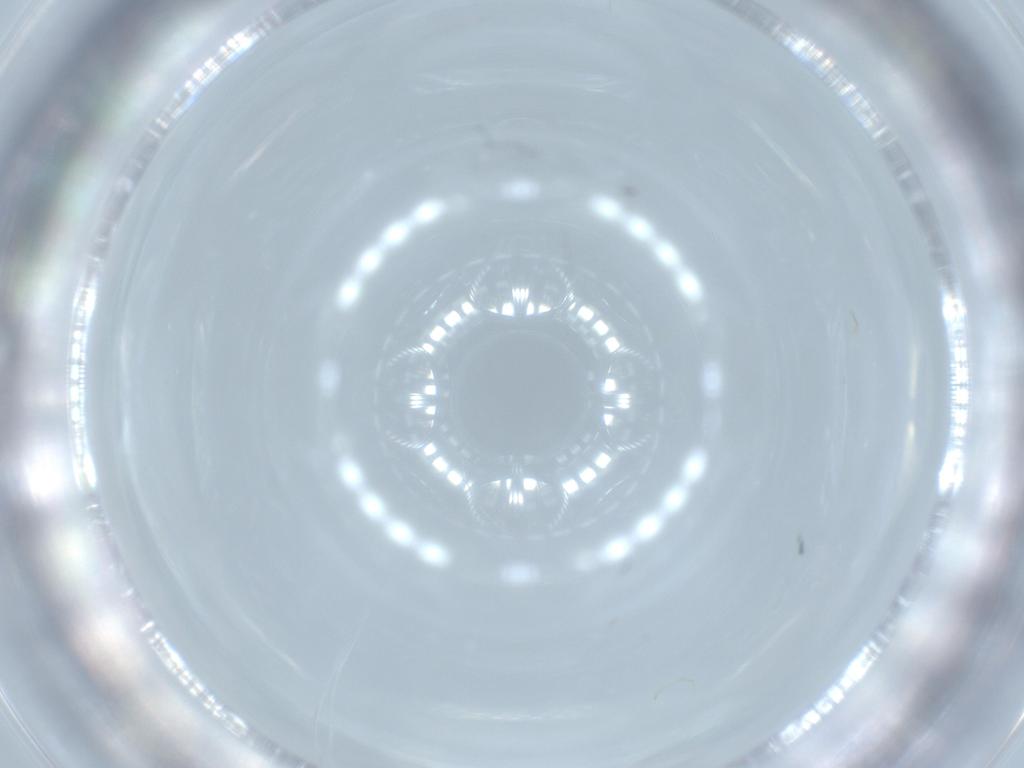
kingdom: Animalia
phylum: Arthropoda
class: Arachnida
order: Trombidiformes
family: Erythraeidae
